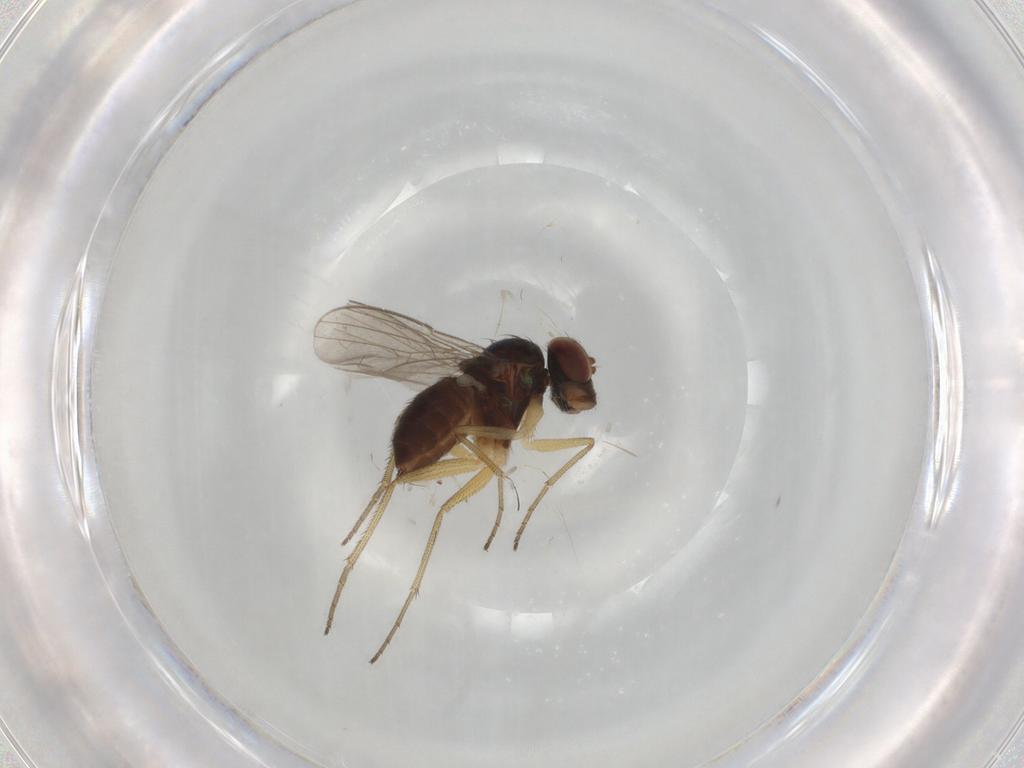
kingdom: Animalia
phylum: Arthropoda
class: Insecta
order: Diptera
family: Dolichopodidae
